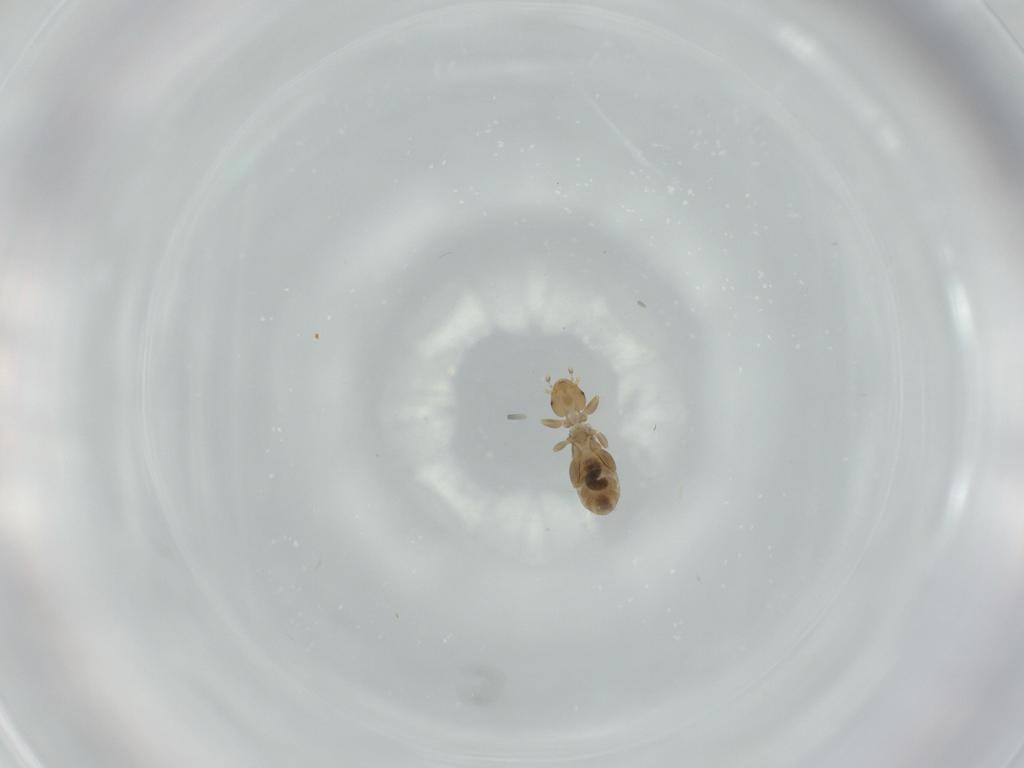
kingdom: Animalia
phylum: Arthropoda
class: Insecta
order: Psocodea
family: Liposcelididae
